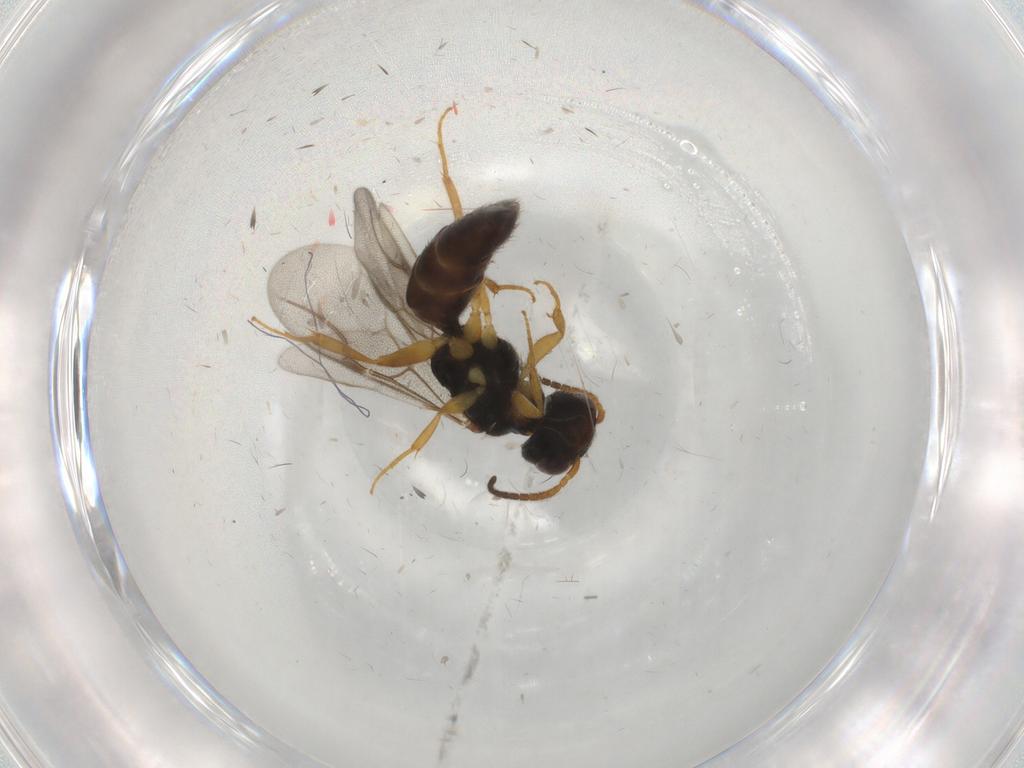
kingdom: Animalia
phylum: Arthropoda
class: Insecta
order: Hymenoptera
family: Bethylidae
